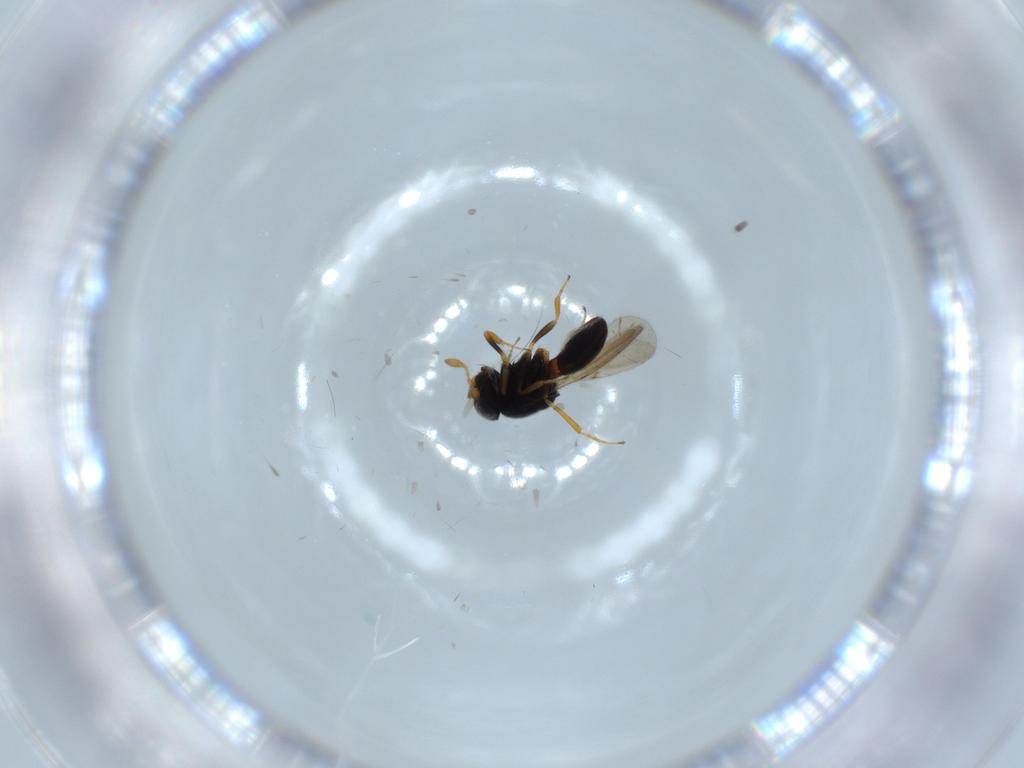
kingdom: Animalia
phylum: Arthropoda
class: Insecta
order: Hymenoptera
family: Scelionidae
